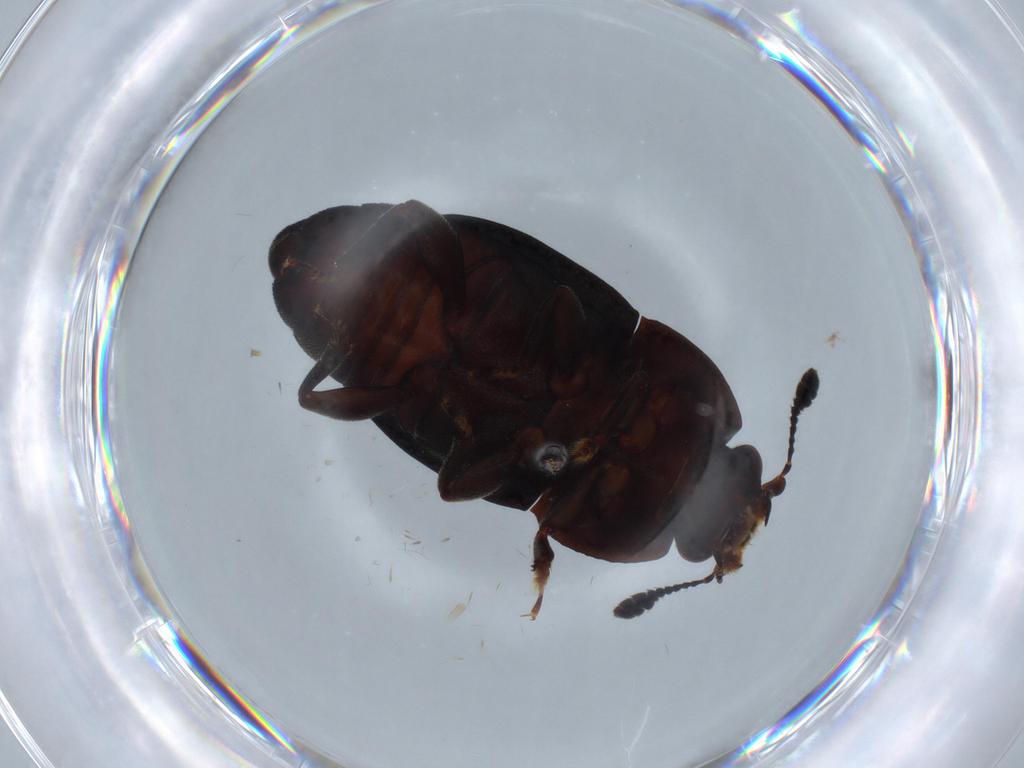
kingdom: Animalia
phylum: Arthropoda
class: Insecta
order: Coleoptera
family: Nitidulidae
